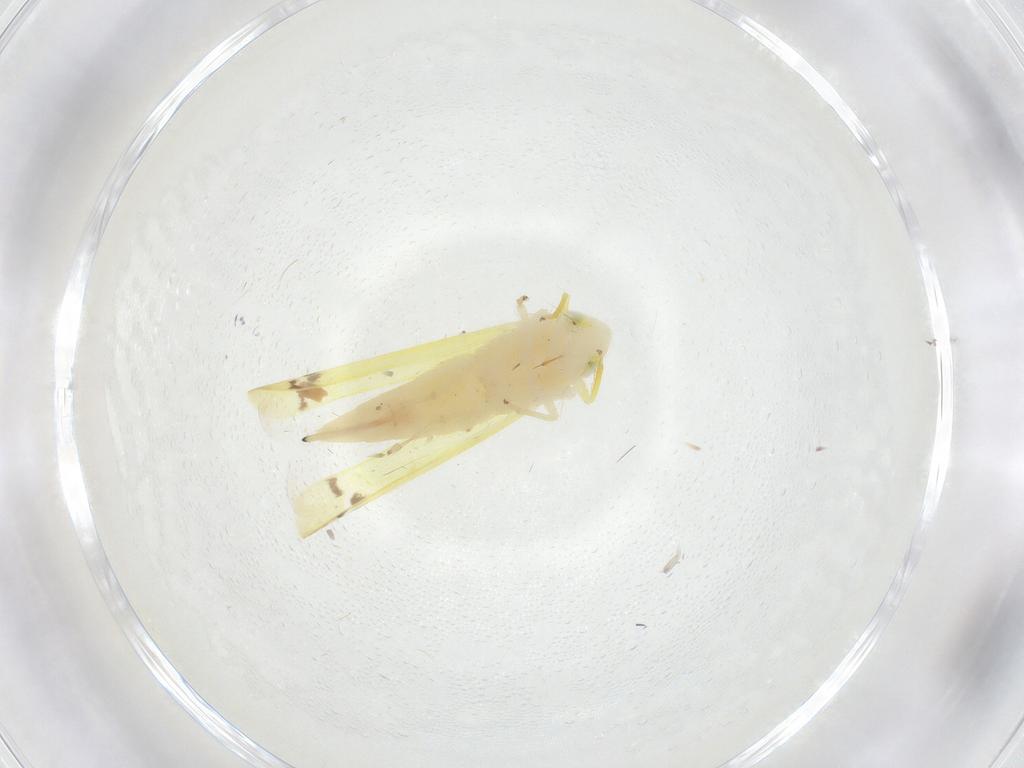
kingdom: Animalia
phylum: Arthropoda
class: Insecta
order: Hemiptera
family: Cicadellidae
